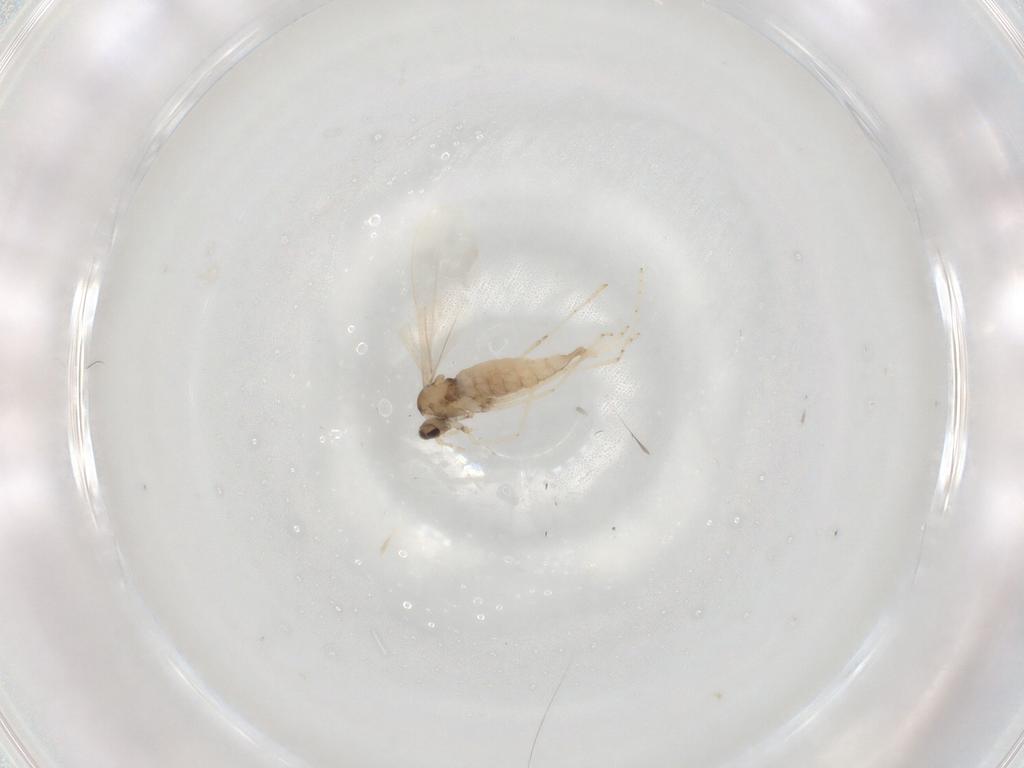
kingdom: Animalia
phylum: Arthropoda
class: Insecta
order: Diptera
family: Cecidomyiidae
